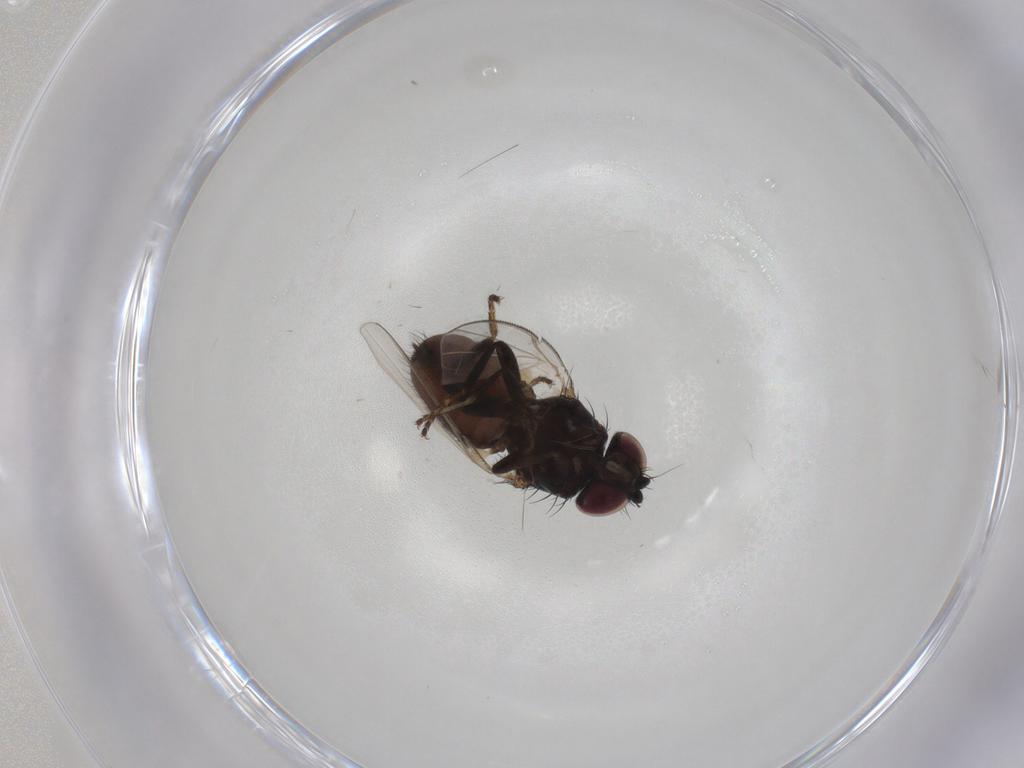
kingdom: Animalia
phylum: Arthropoda
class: Insecta
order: Diptera
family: Milichiidae
